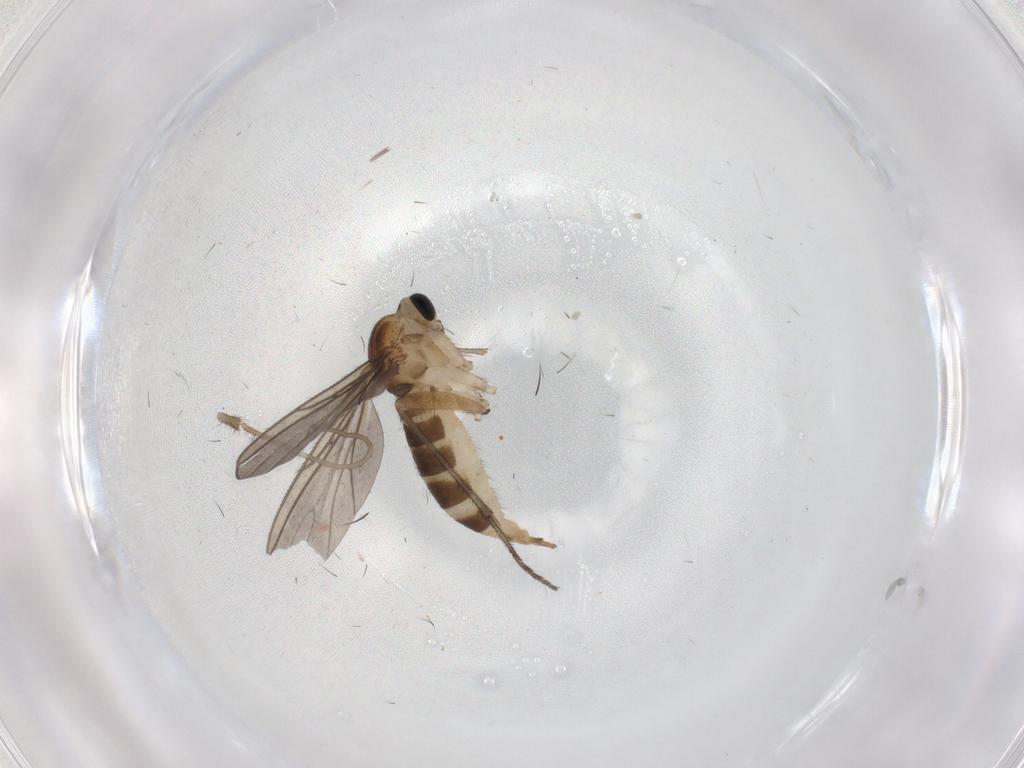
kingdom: Animalia
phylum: Arthropoda
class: Insecta
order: Diptera
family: Sciaridae
